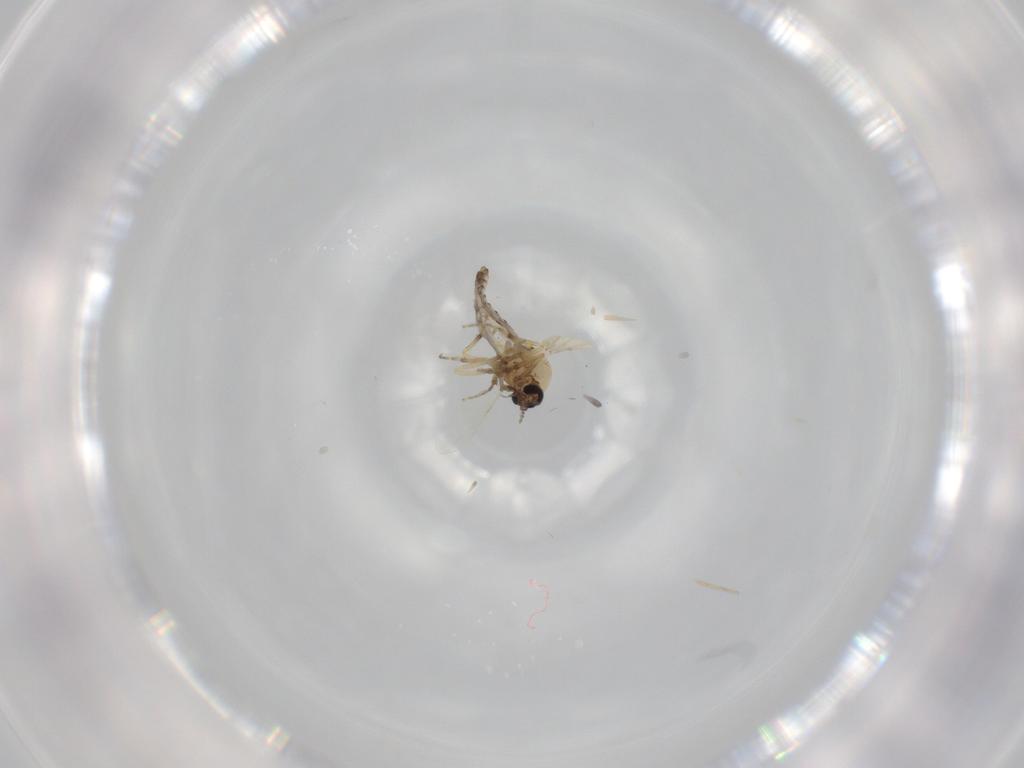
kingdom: Animalia
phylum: Arthropoda
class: Insecta
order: Diptera
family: Ceratopogonidae
